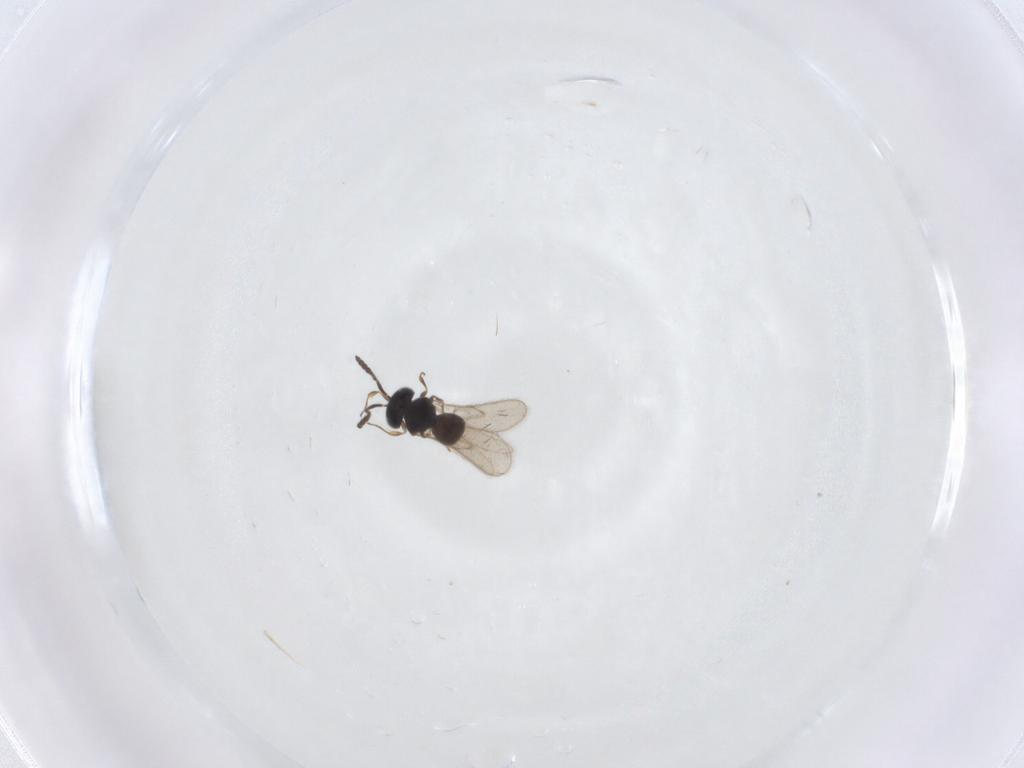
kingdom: Animalia
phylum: Arthropoda
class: Insecta
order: Hymenoptera
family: Scelionidae
